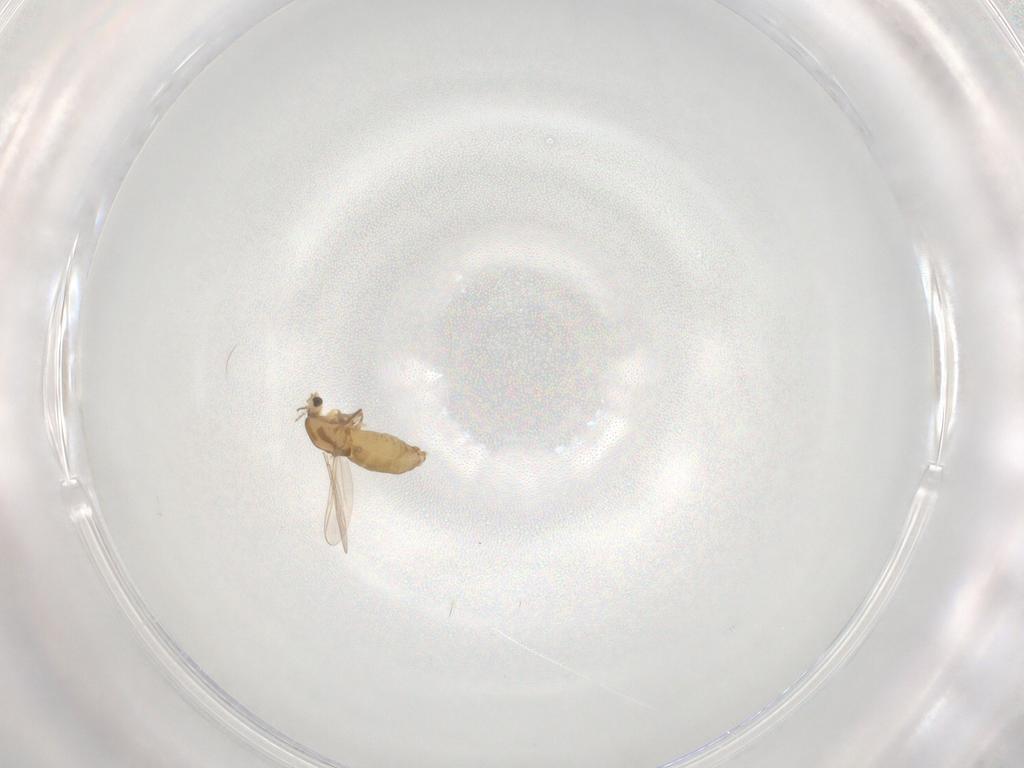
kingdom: Animalia
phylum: Arthropoda
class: Insecta
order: Diptera
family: Chironomidae
